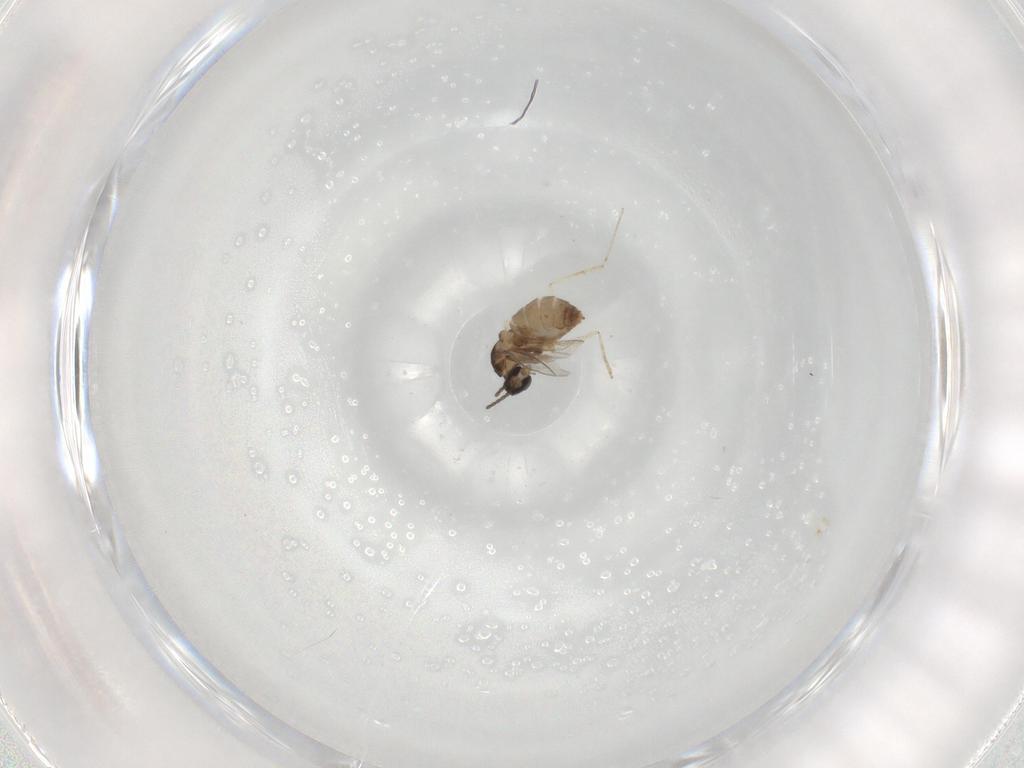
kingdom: Animalia
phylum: Arthropoda
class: Insecta
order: Diptera
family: Cecidomyiidae
